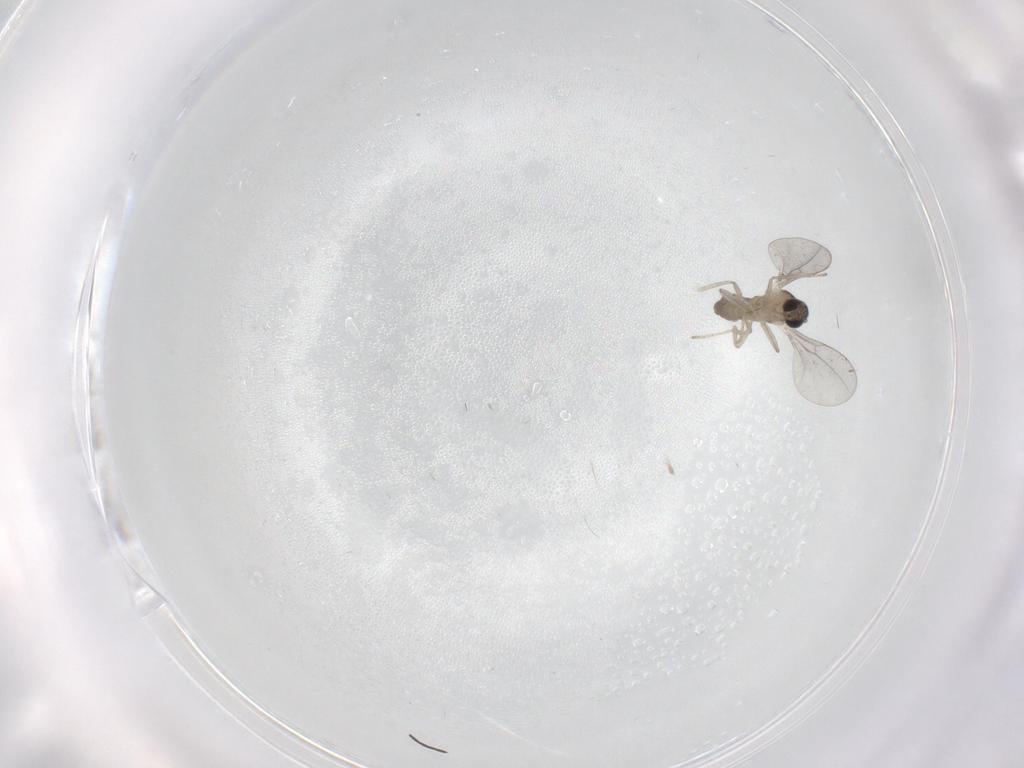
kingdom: Animalia
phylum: Arthropoda
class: Insecta
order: Diptera
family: Cecidomyiidae
